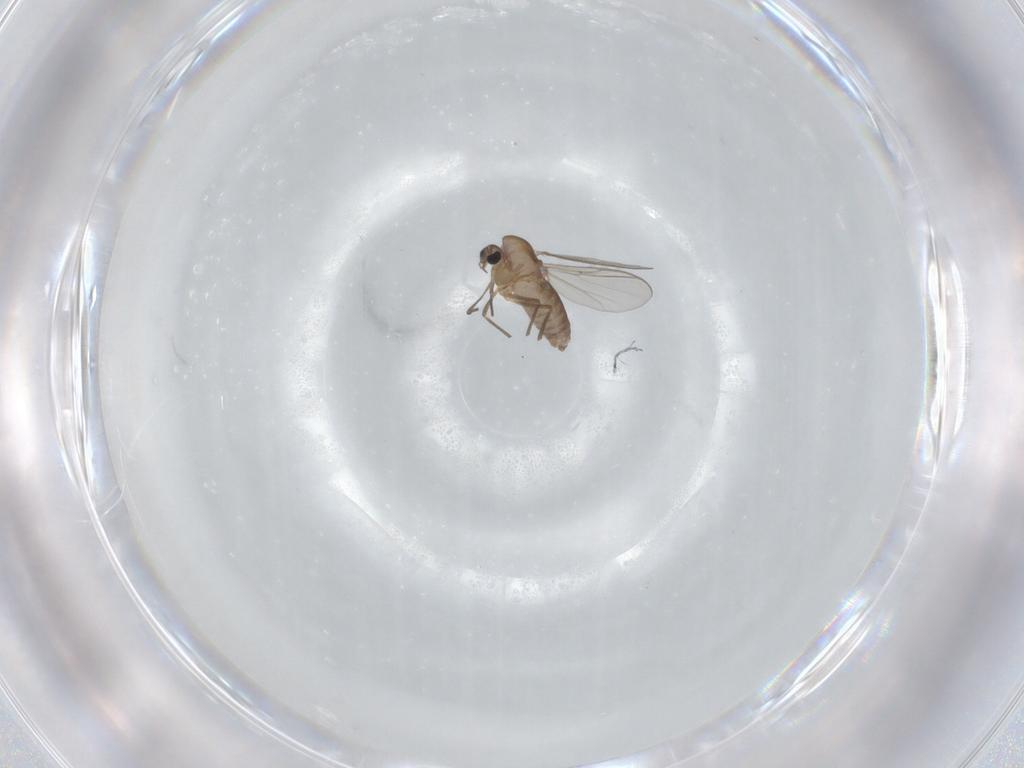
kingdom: Animalia
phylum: Arthropoda
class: Insecta
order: Diptera
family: Chironomidae
